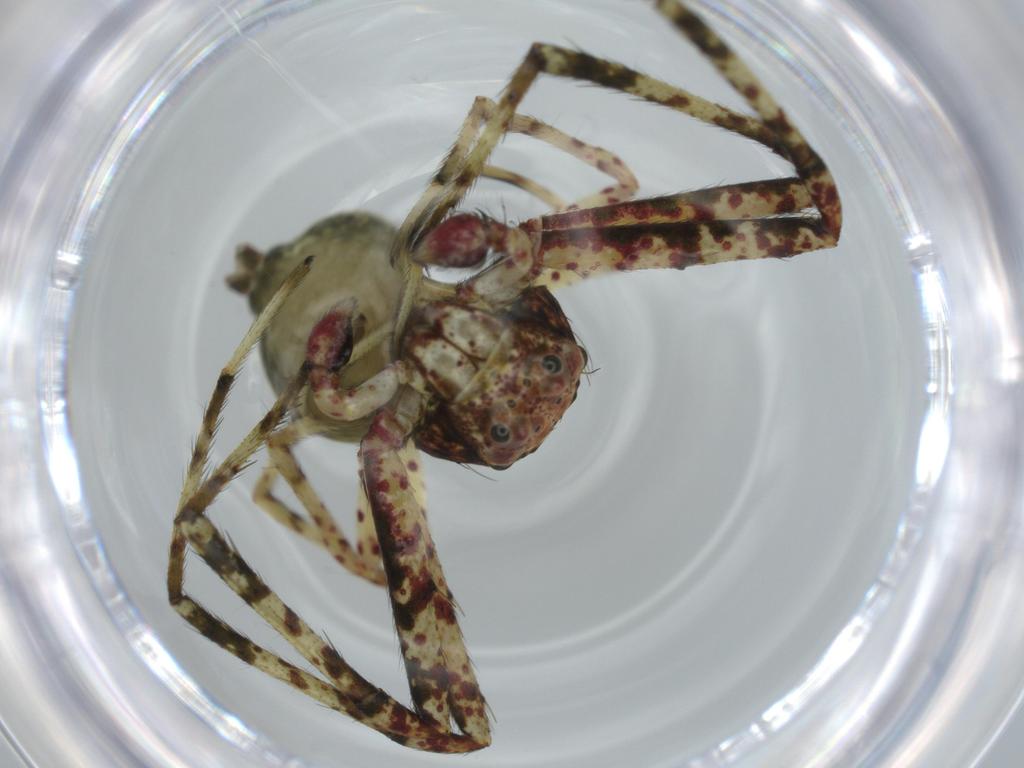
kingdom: Animalia
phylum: Arthropoda
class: Arachnida
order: Araneae
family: Thomisidae
